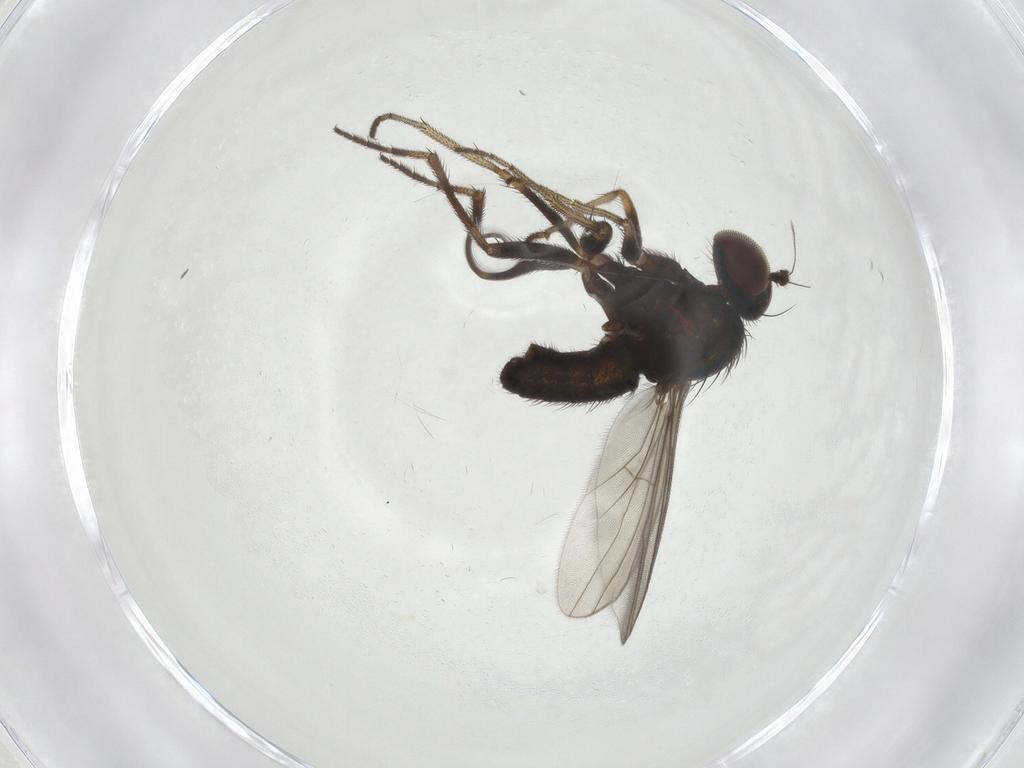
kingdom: Animalia
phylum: Arthropoda
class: Insecta
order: Diptera
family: Dolichopodidae
